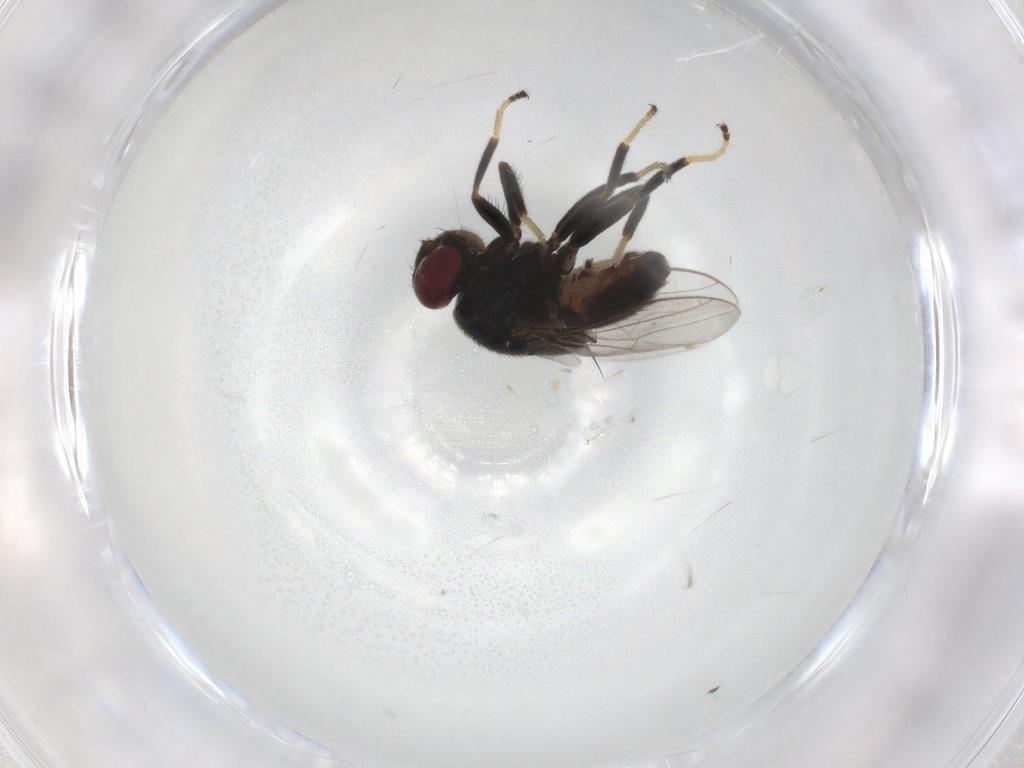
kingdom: Animalia
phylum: Arthropoda
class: Insecta
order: Diptera
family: Chloropidae
